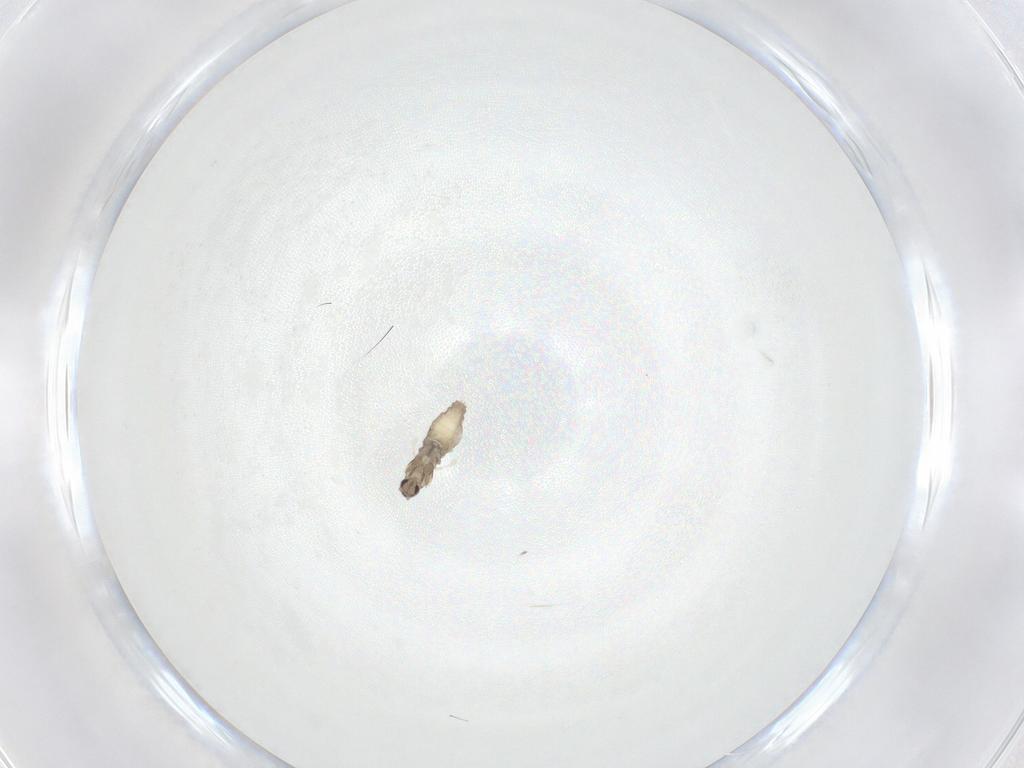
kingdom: Animalia
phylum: Arthropoda
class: Insecta
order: Diptera
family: Cecidomyiidae
